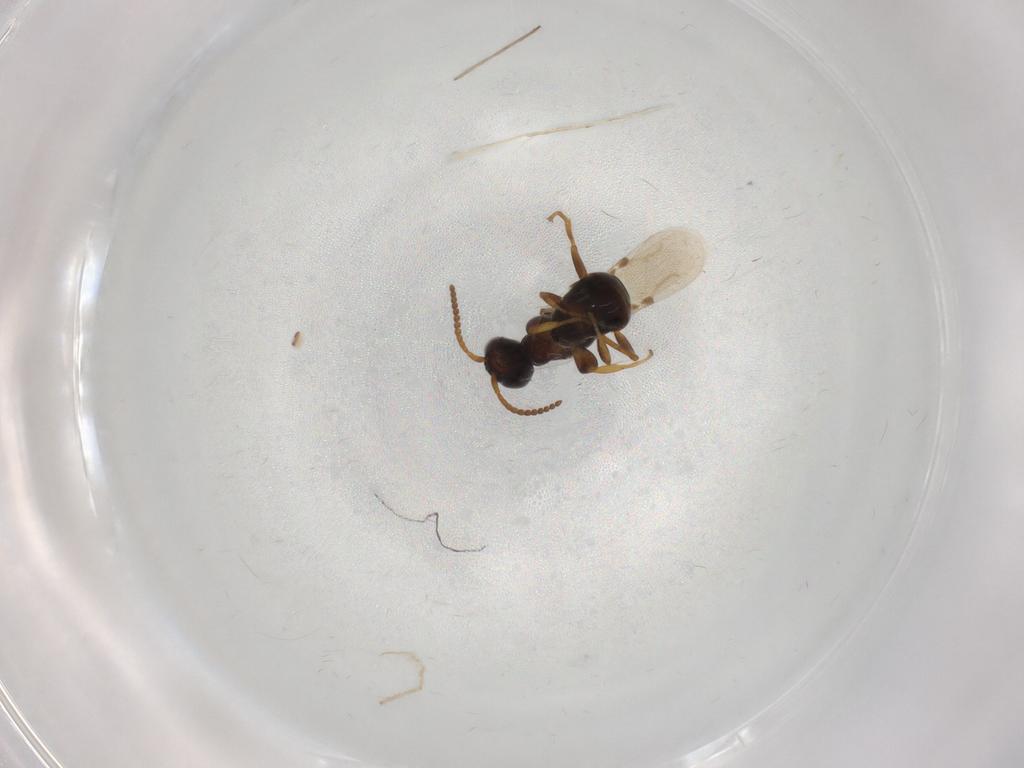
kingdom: Animalia
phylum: Arthropoda
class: Insecta
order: Hymenoptera
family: Bethylidae
